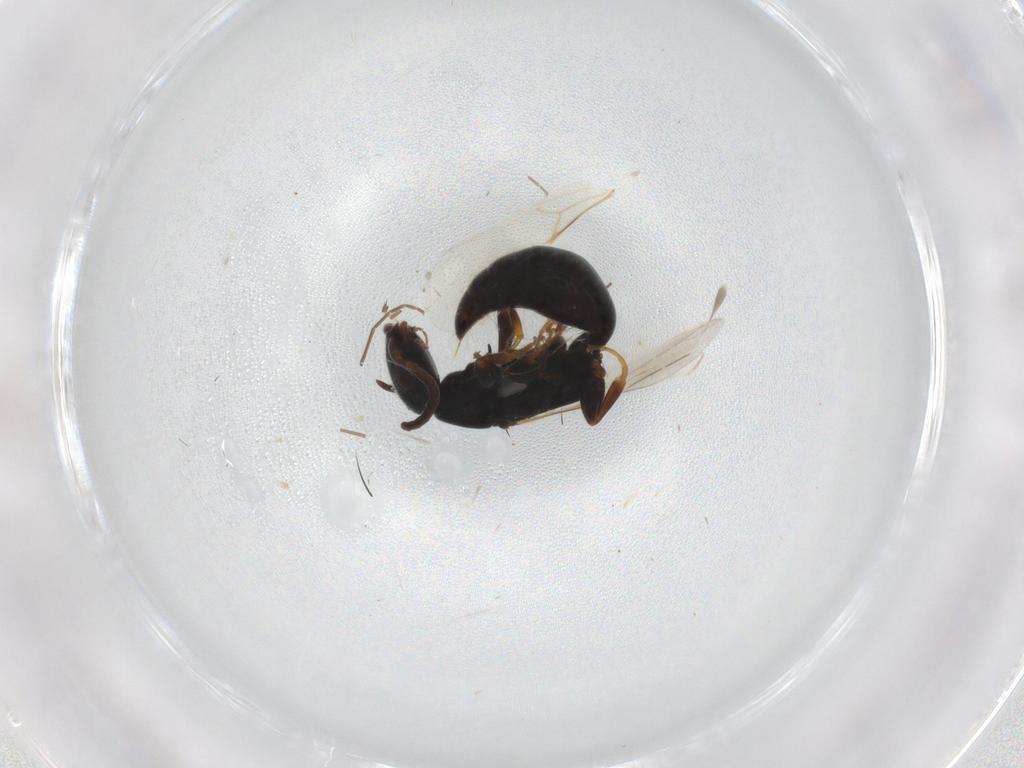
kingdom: Animalia
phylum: Arthropoda
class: Insecta
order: Hymenoptera
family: Bethylidae
